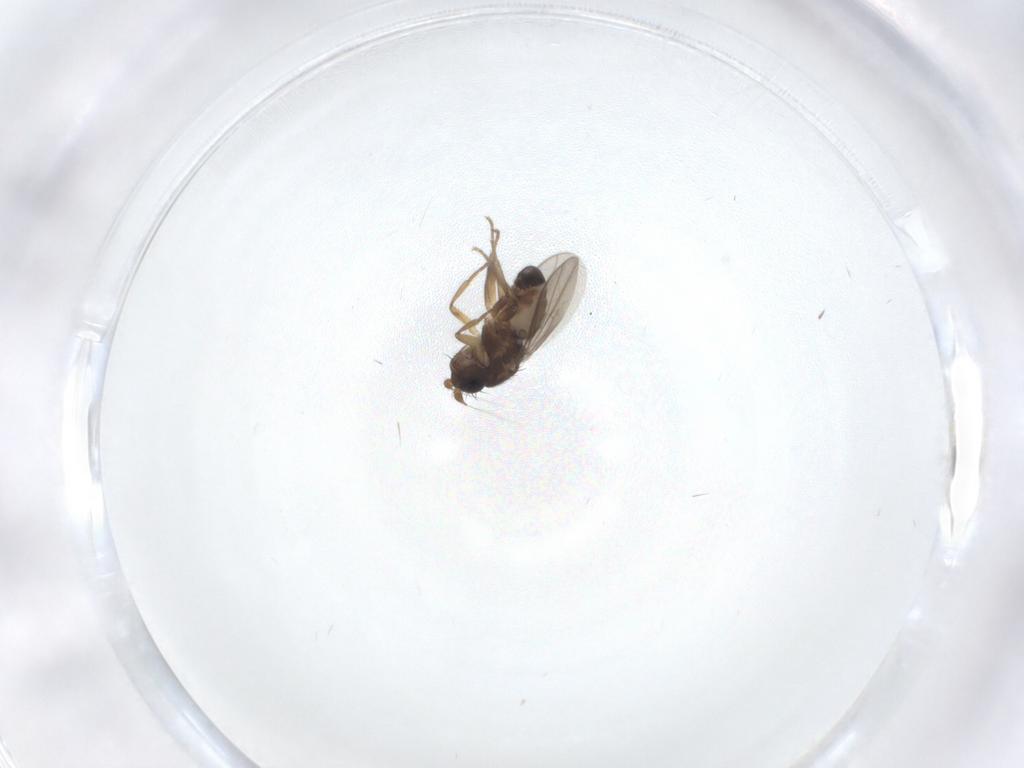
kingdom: Animalia
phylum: Arthropoda
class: Insecta
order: Diptera
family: Sphaeroceridae
